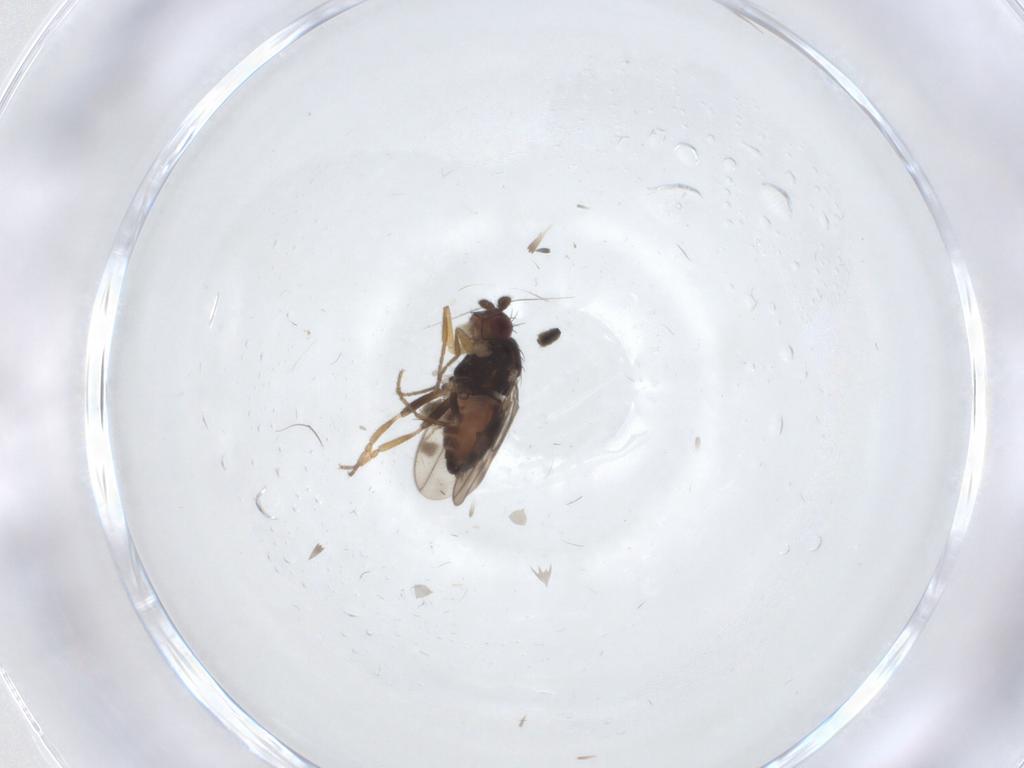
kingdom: Animalia
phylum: Arthropoda
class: Insecta
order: Diptera
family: Sphaeroceridae
